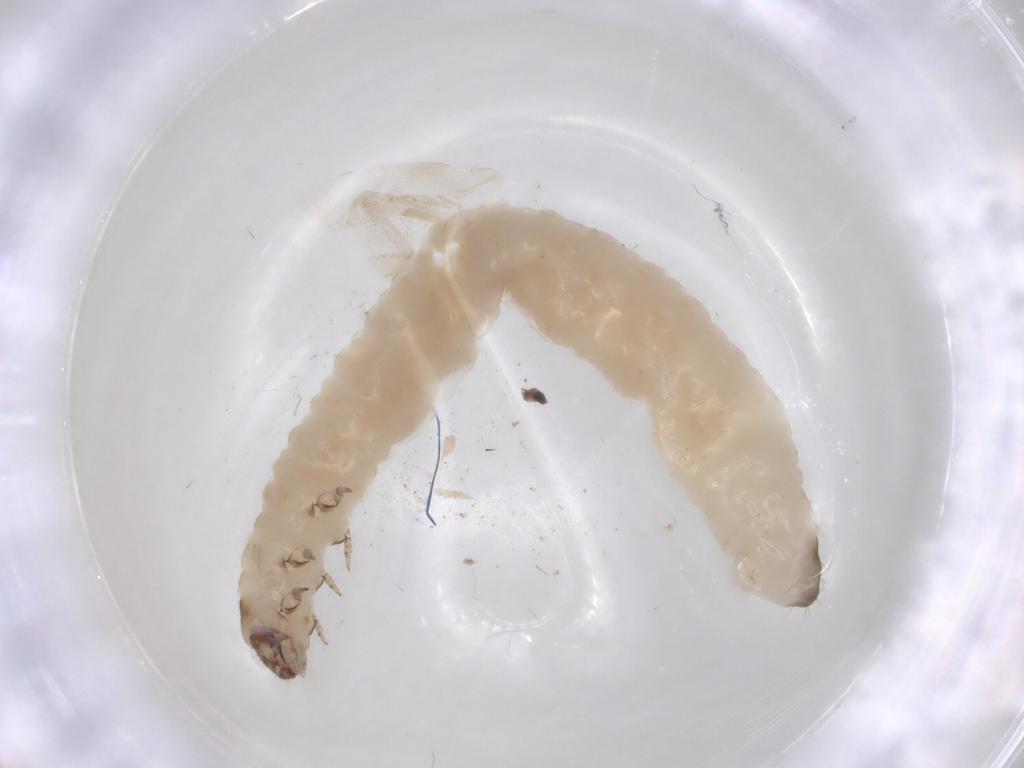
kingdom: Animalia
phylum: Arthropoda
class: Insecta
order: Coleoptera
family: Chrysomelidae
